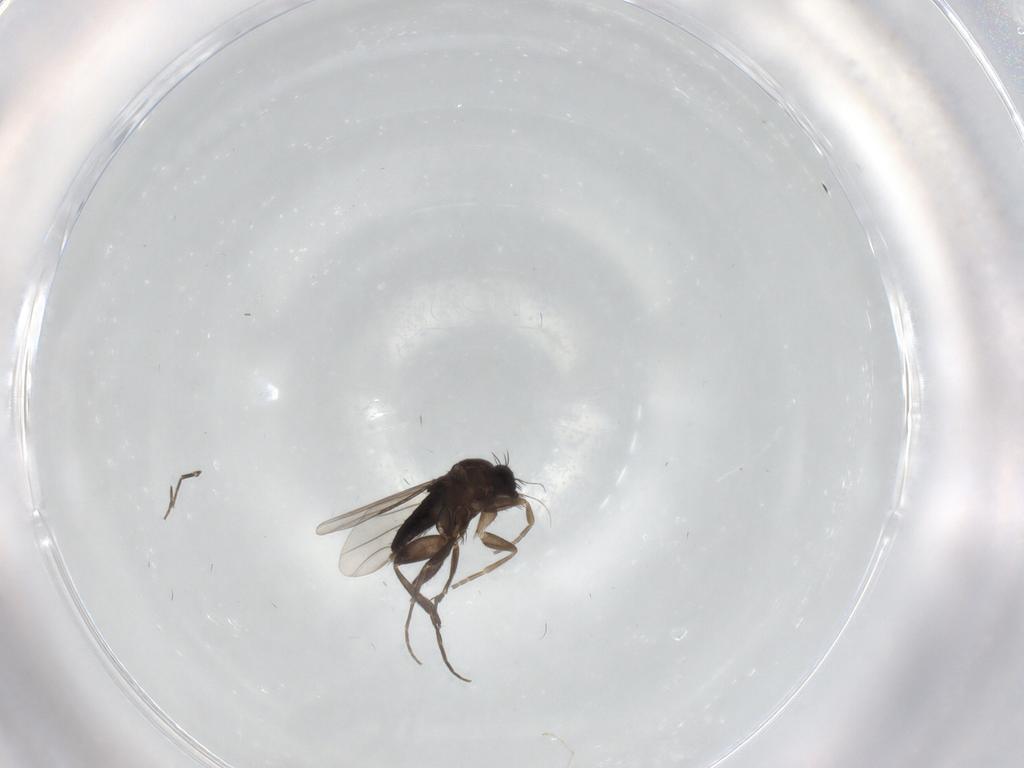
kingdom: Animalia
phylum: Arthropoda
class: Insecta
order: Diptera
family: Phoridae
